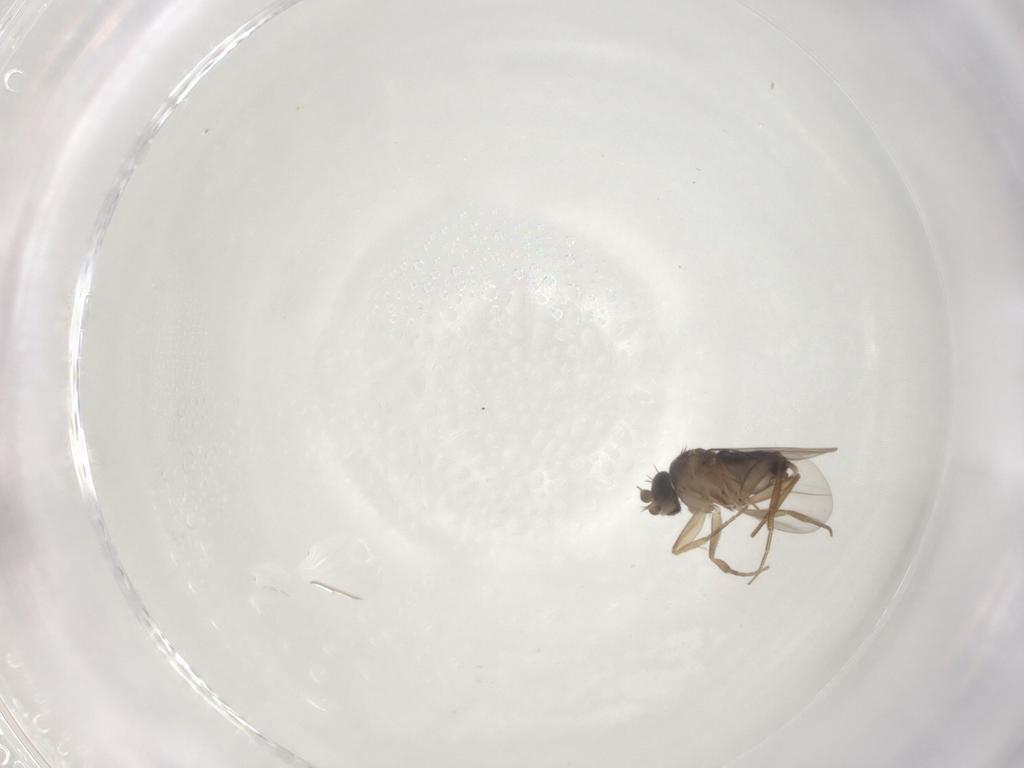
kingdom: Animalia
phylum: Arthropoda
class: Insecta
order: Diptera
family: Phoridae
